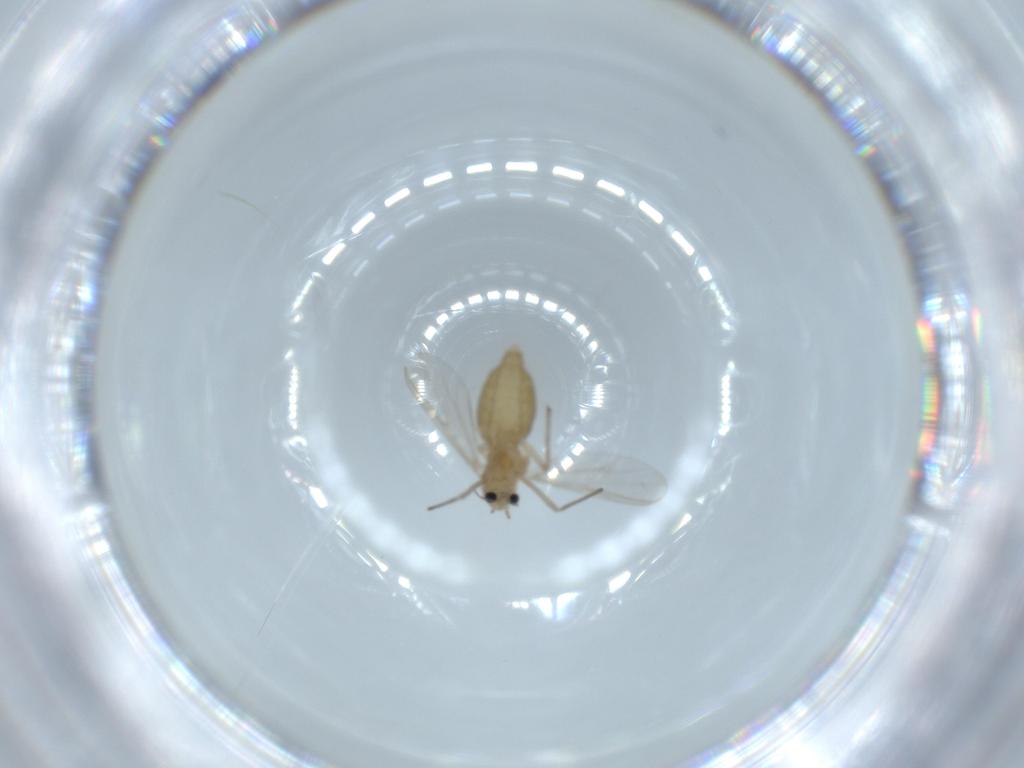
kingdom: Animalia
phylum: Arthropoda
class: Insecta
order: Diptera
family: Chironomidae
